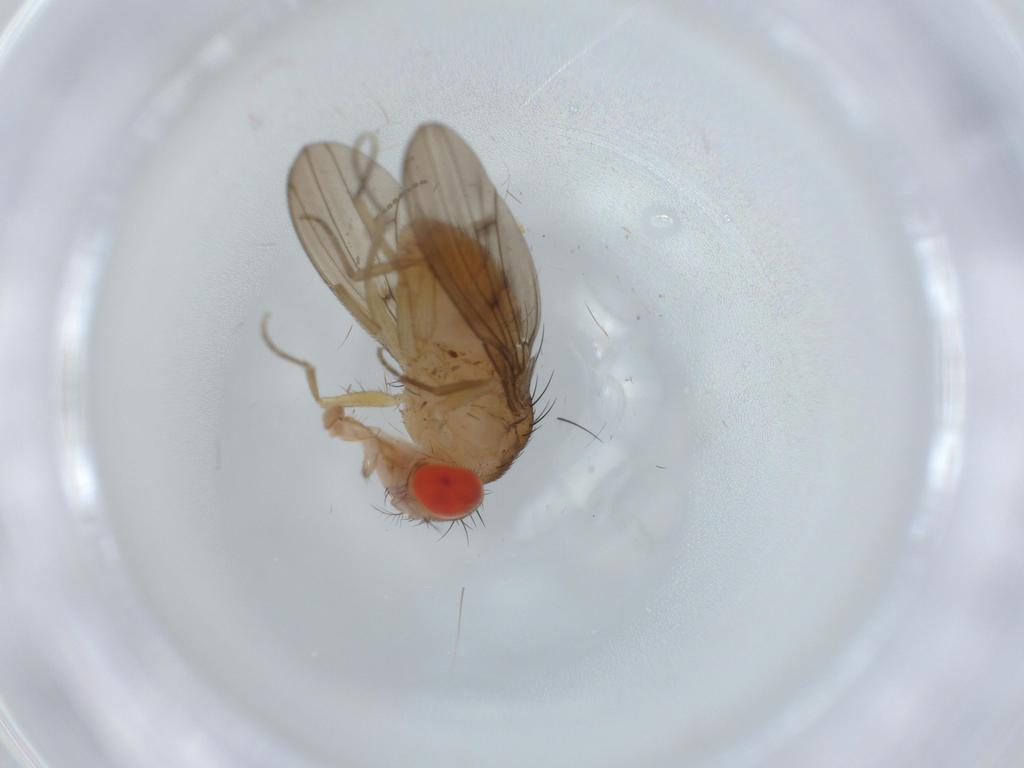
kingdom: Animalia
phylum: Arthropoda
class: Insecta
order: Diptera
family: Drosophilidae
